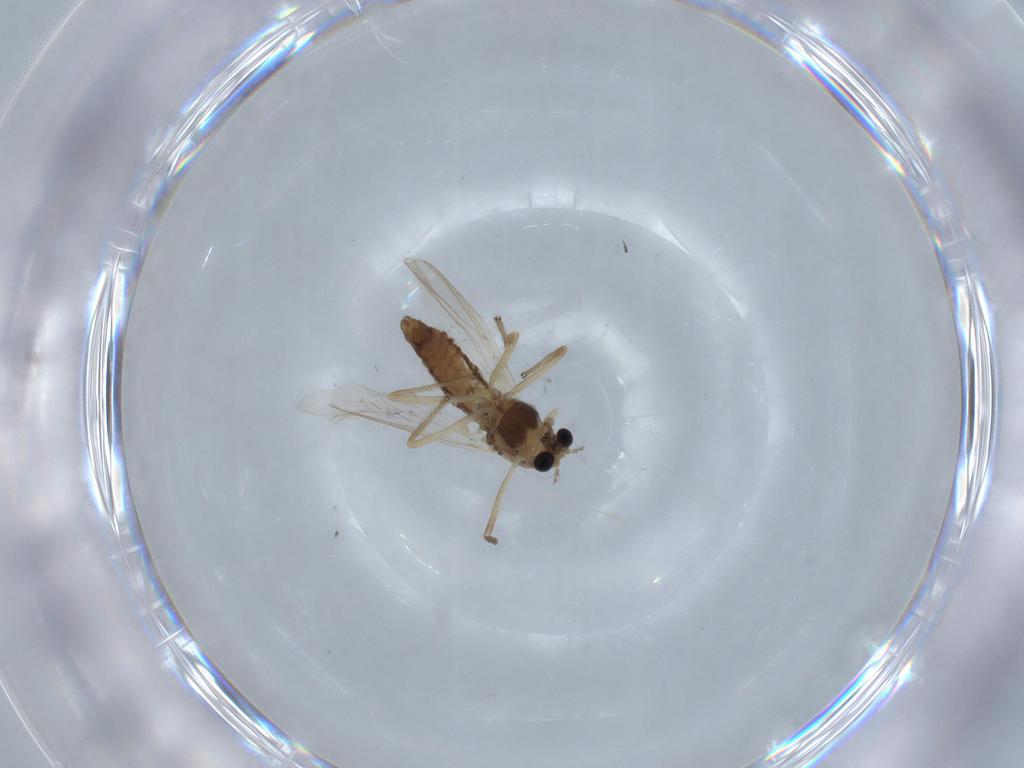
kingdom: Animalia
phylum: Arthropoda
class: Insecta
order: Diptera
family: Chironomidae
